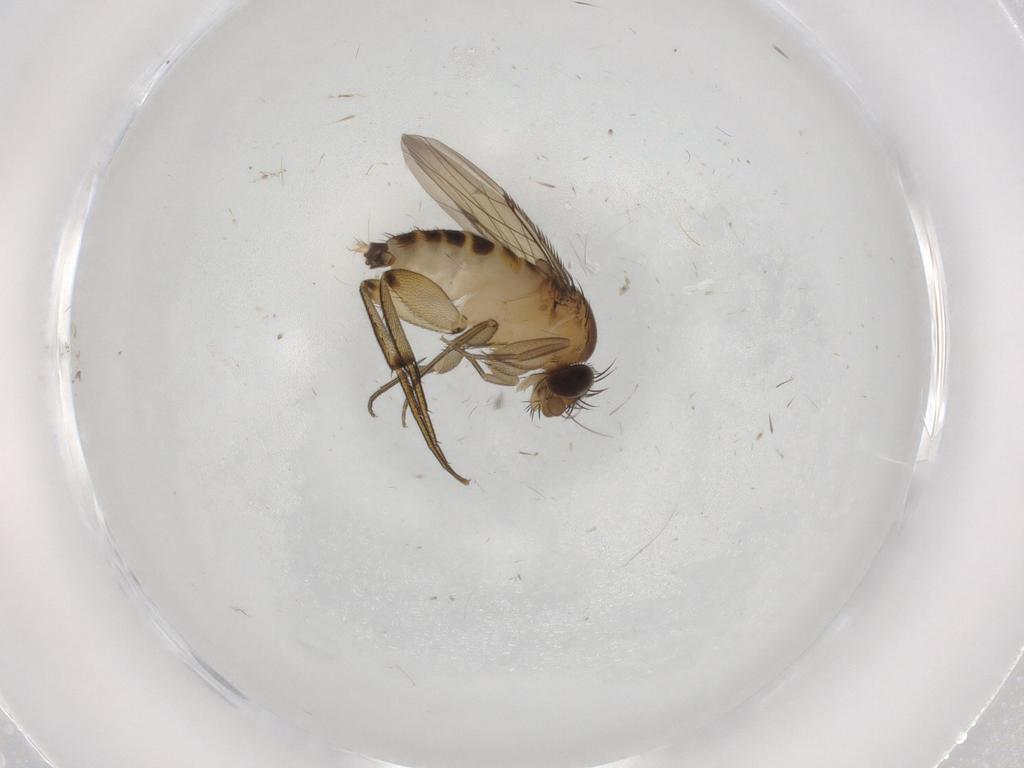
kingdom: Animalia
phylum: Arthropoda
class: Insecta
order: Diptera
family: Phoridae
